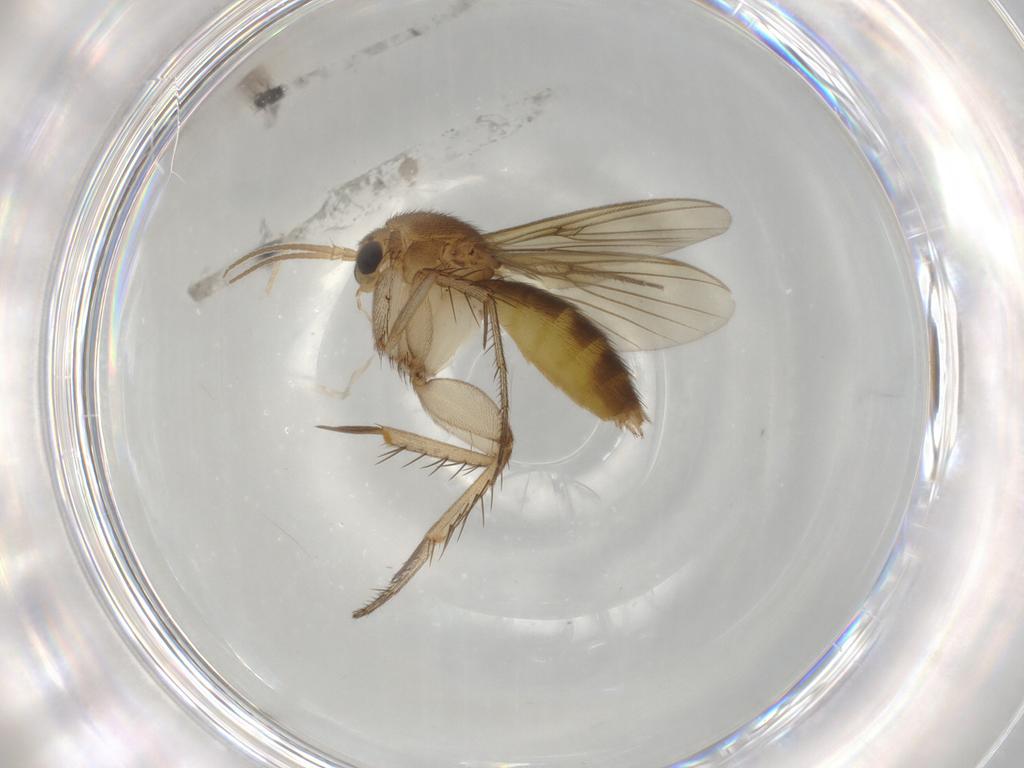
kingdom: Animalia
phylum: Arthropoda
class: Insecta
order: Diptera
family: Psychodidae
